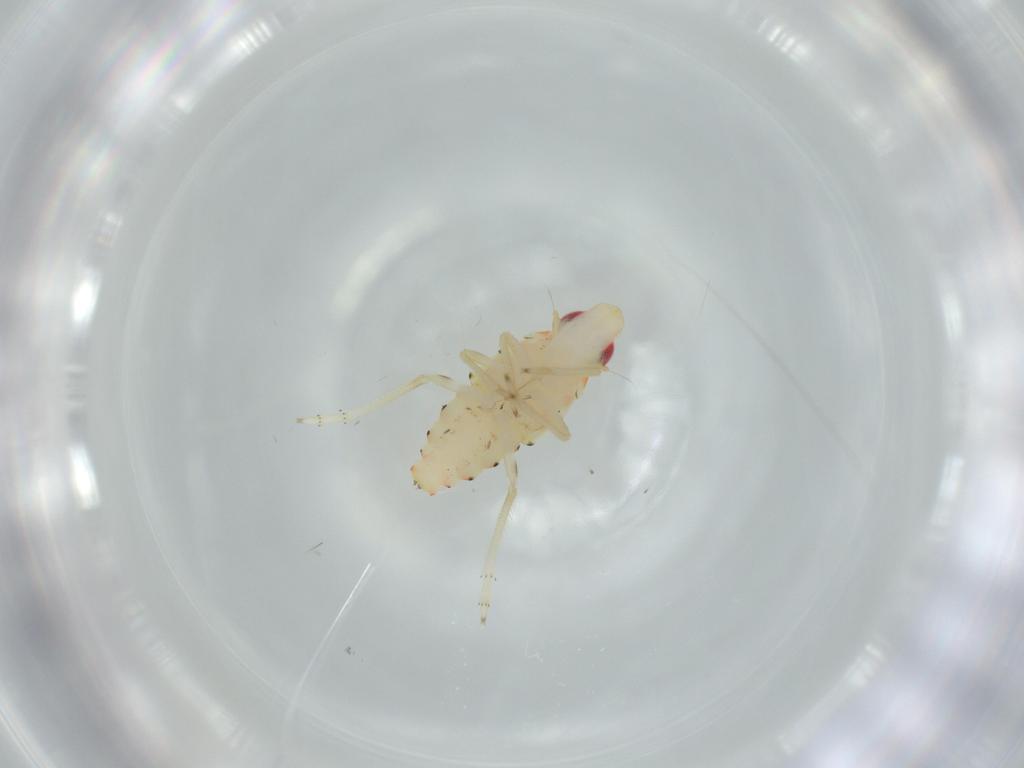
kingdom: Animalia
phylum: Arthropoda
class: Insecta
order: Hemiptera
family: Tropiduchidae
